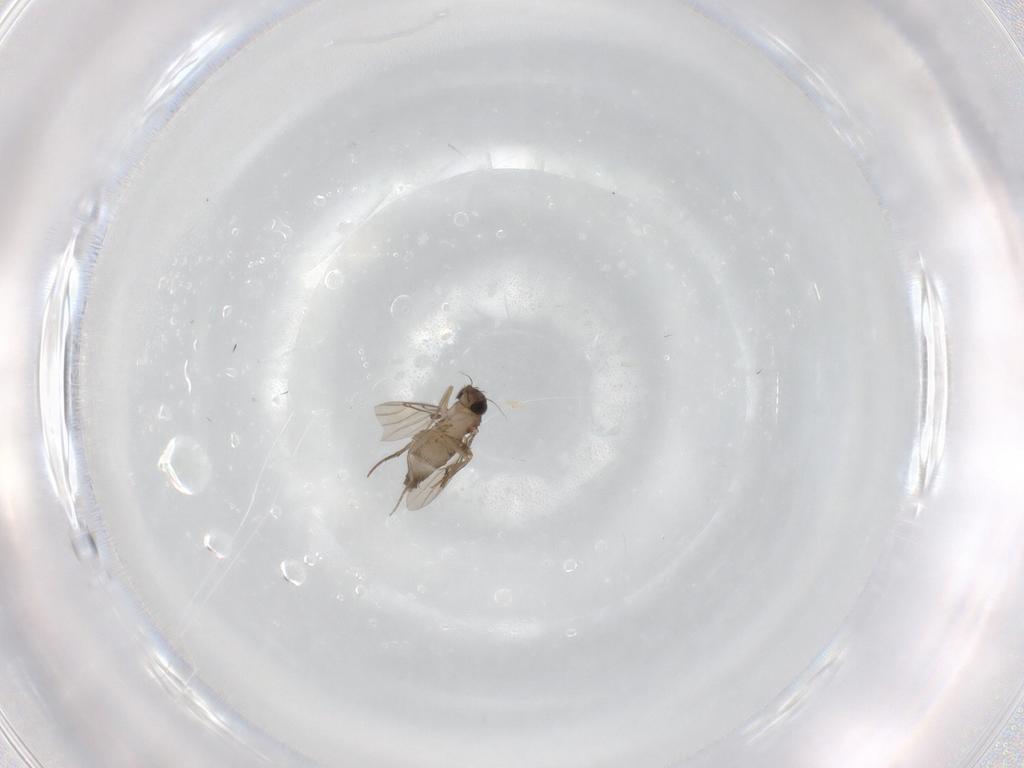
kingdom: Animalia
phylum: Arthropoda
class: Insecta
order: Diptera
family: Phoridae
